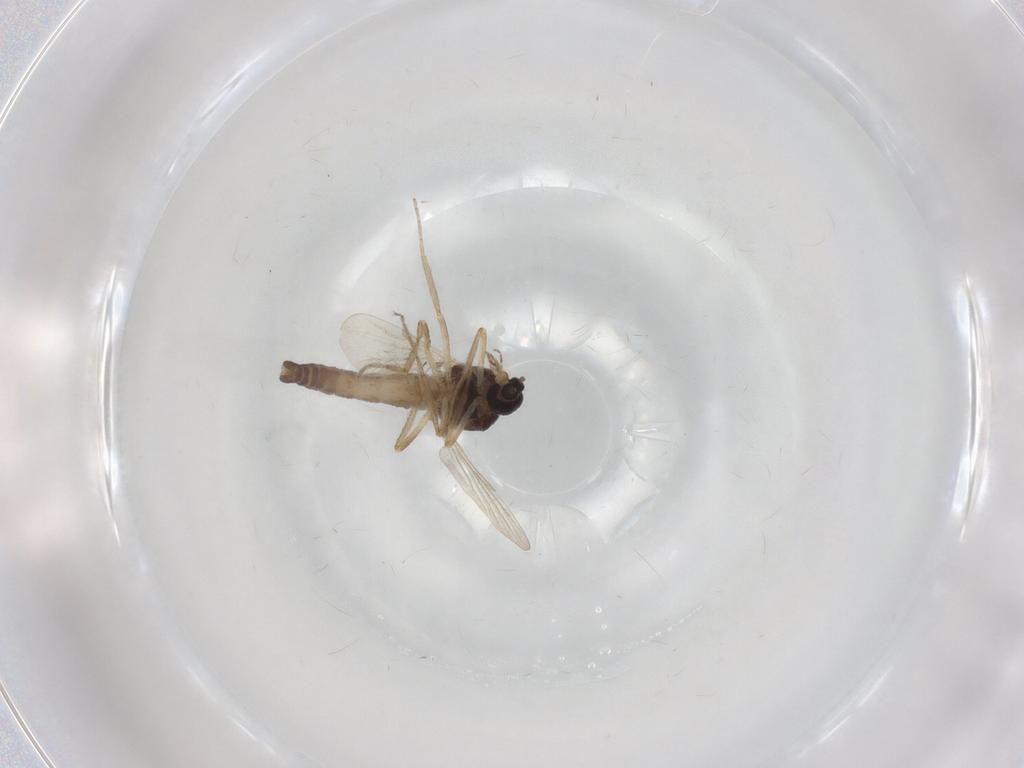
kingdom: Animalia
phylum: Arthropoda
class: Insecta
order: Diptera
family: Ceratopogonidae
